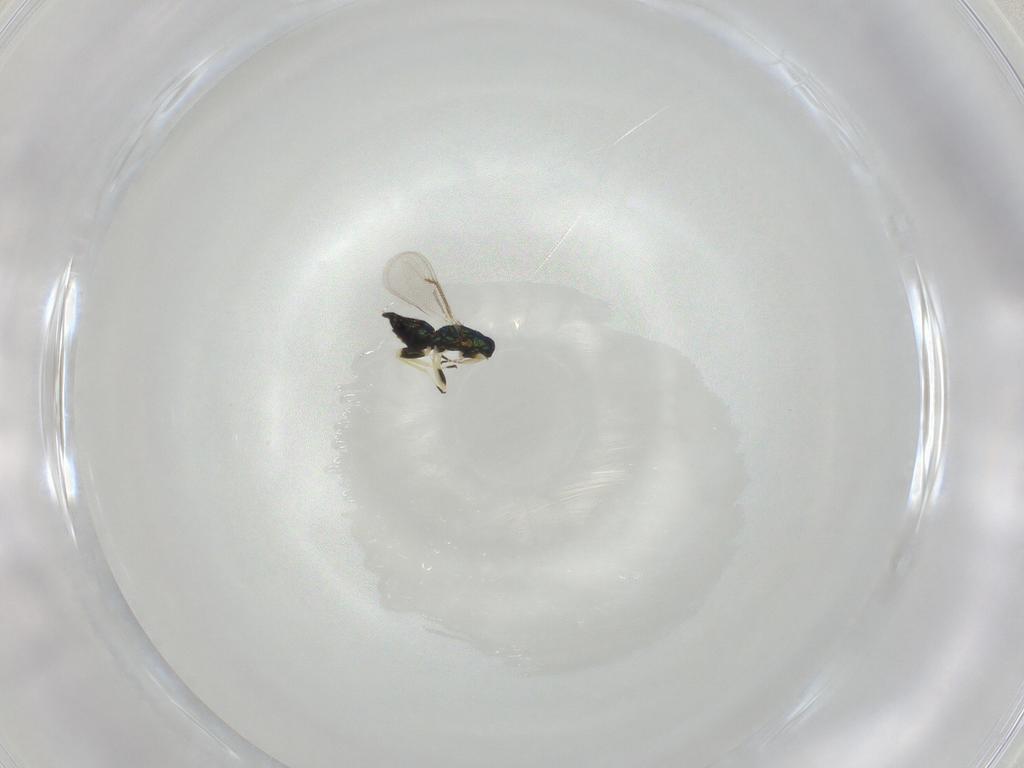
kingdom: Animalia
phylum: Arthropoda
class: Insecta
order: Hymenoptera
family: Eulophidae
